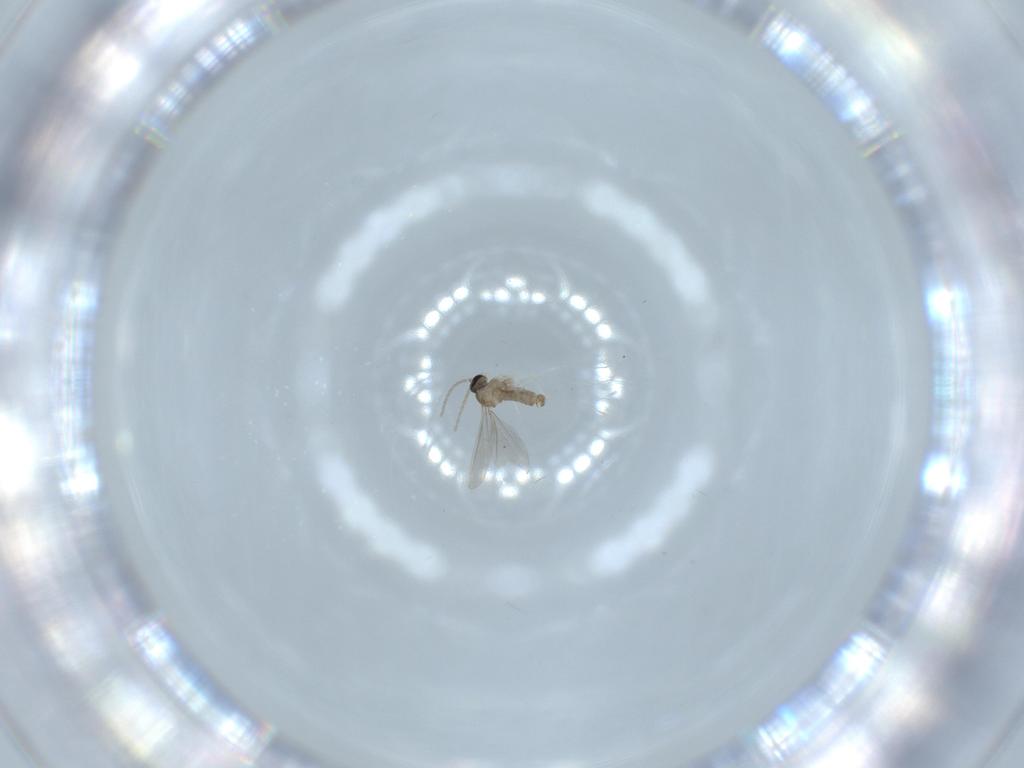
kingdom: Animalia
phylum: Arthropoda
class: Insecta
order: Diptera
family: Cecidomyiidae
